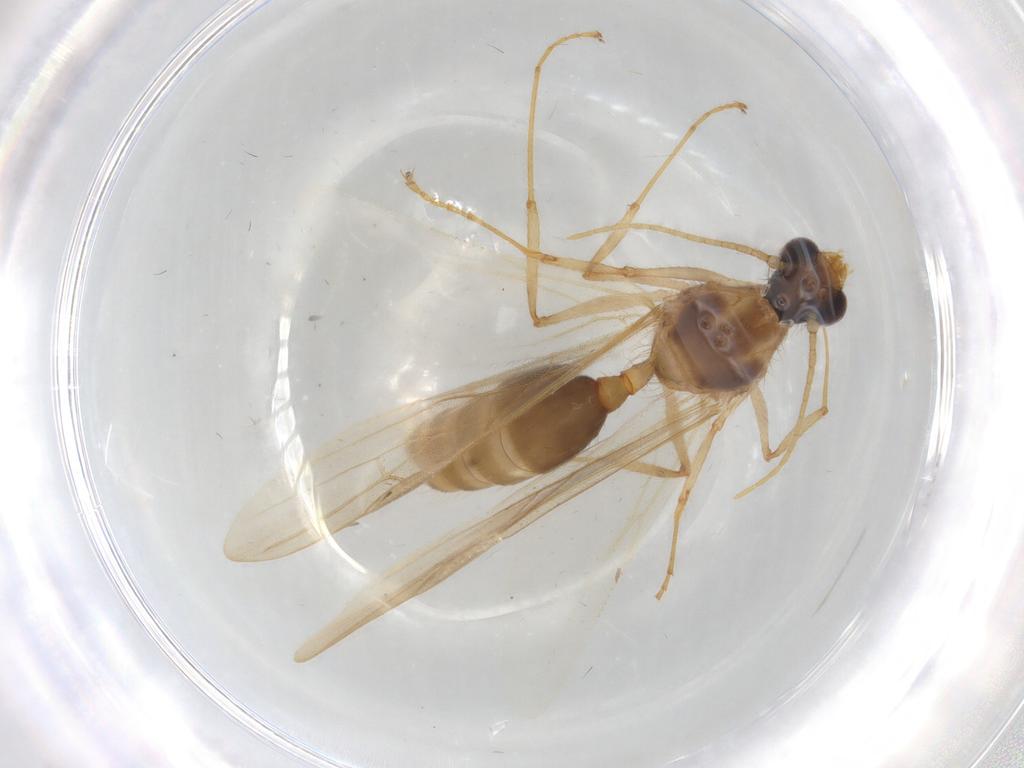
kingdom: Animalia
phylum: Arthropoda
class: Insecta
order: Hymenoptera
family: Formicidae
